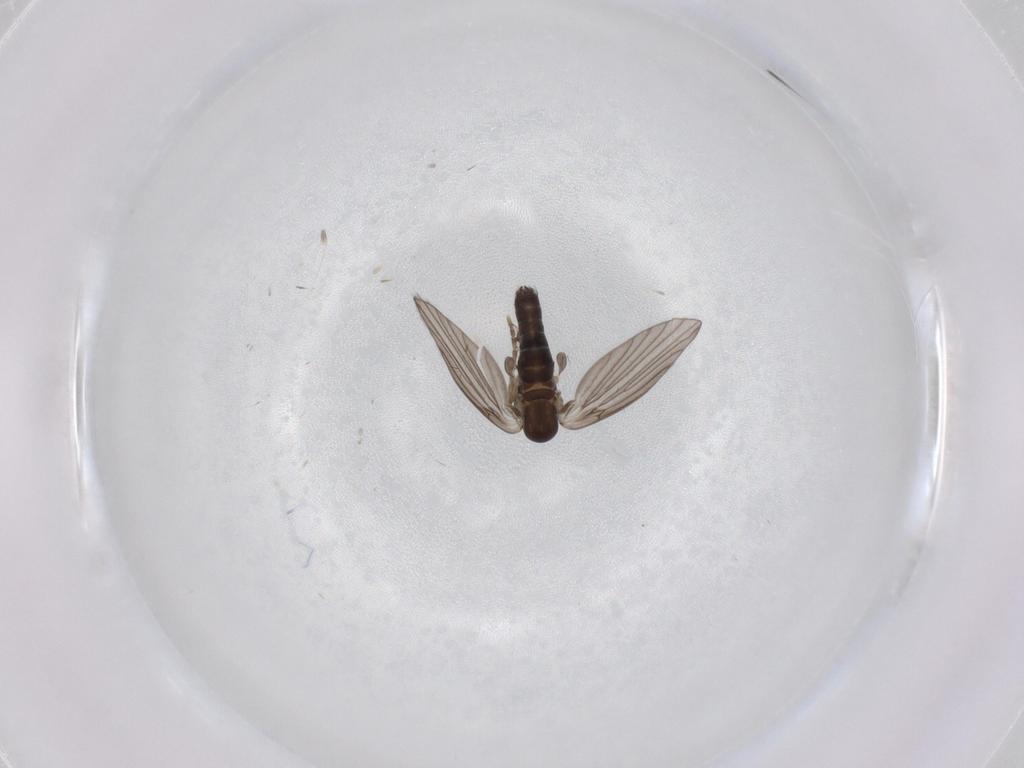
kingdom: Animalia
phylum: Arthropoda
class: Insecta
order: Diptera
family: Cecidomyiidae
